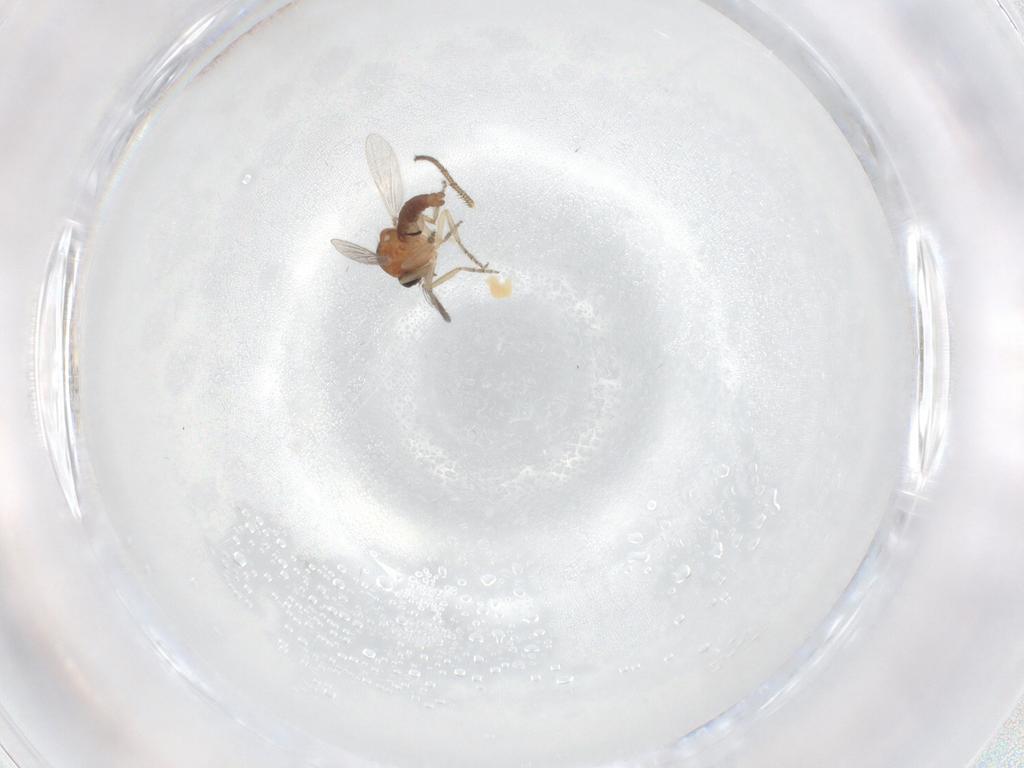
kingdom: Animalia
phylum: Arthropoda
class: Insecta
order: Diptera
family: Ceratopogonidae
